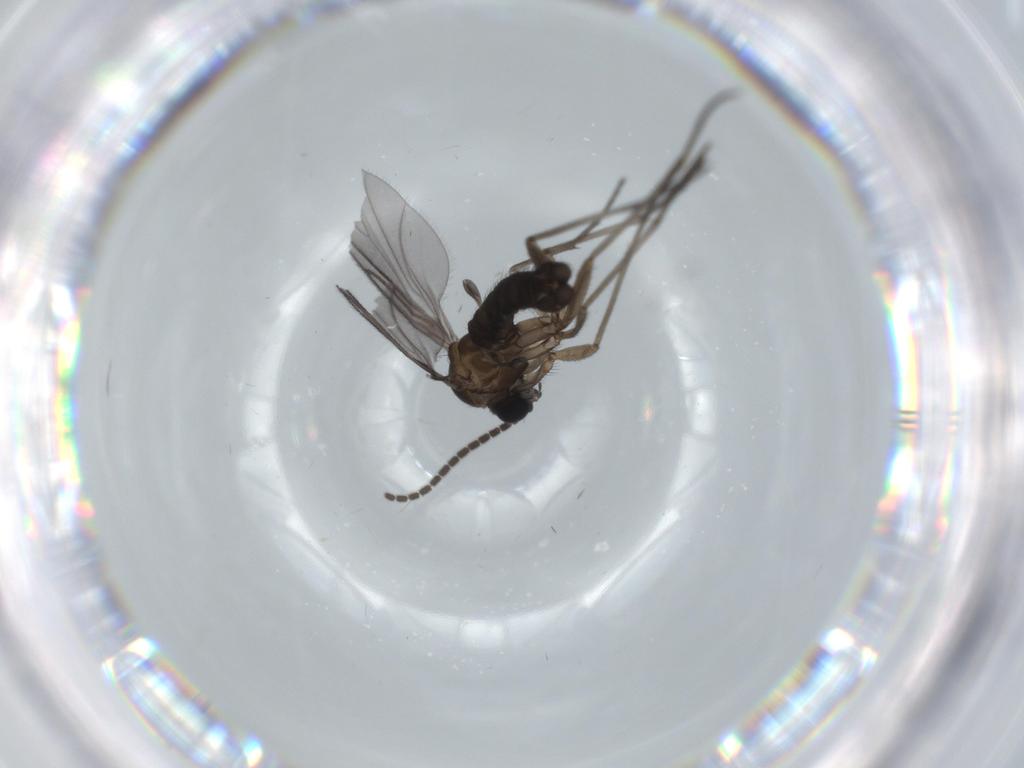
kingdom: Animalia
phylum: Arthropoda
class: Insecta
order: Diptera
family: Sciaridae
